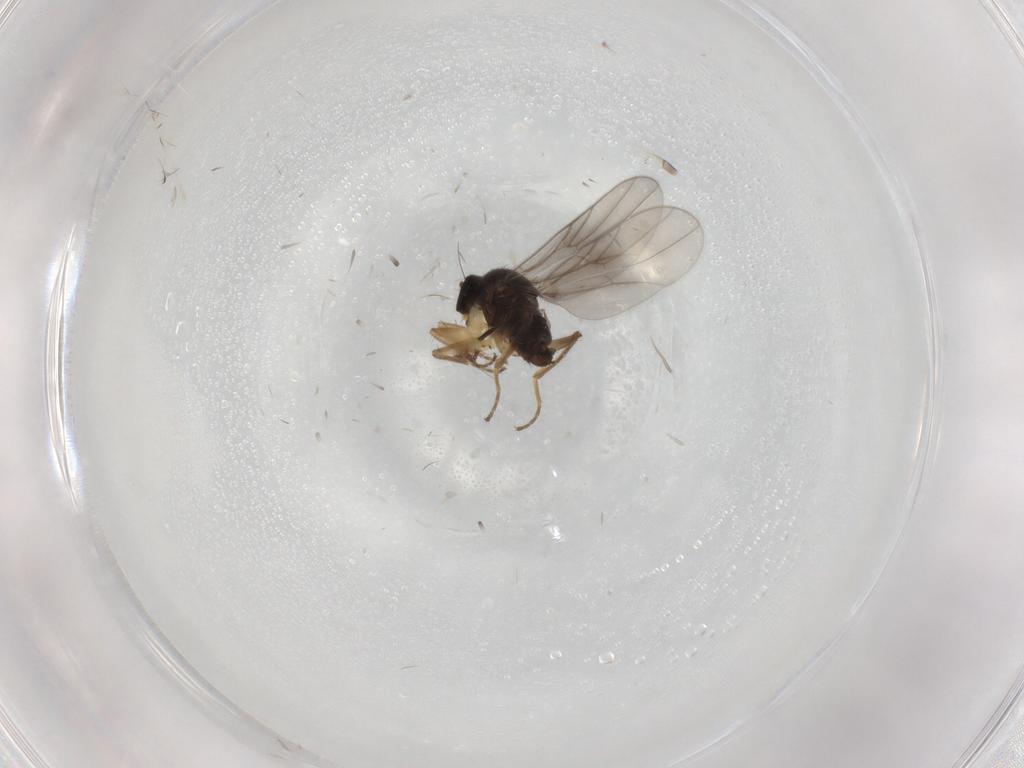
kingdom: Animalia
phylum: Arthropoda
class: Insecta
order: Diptera
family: Hybotidae
